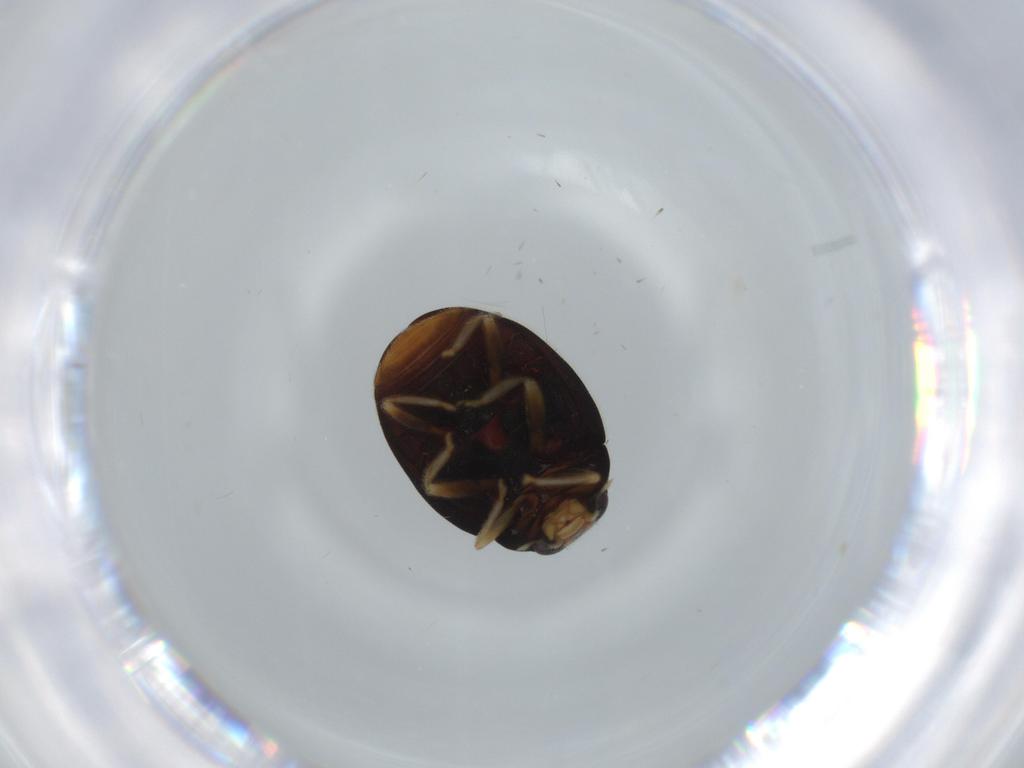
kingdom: Animalia
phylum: Arthropoda
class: Insecta
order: Coleoptera
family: Coccinellidae
